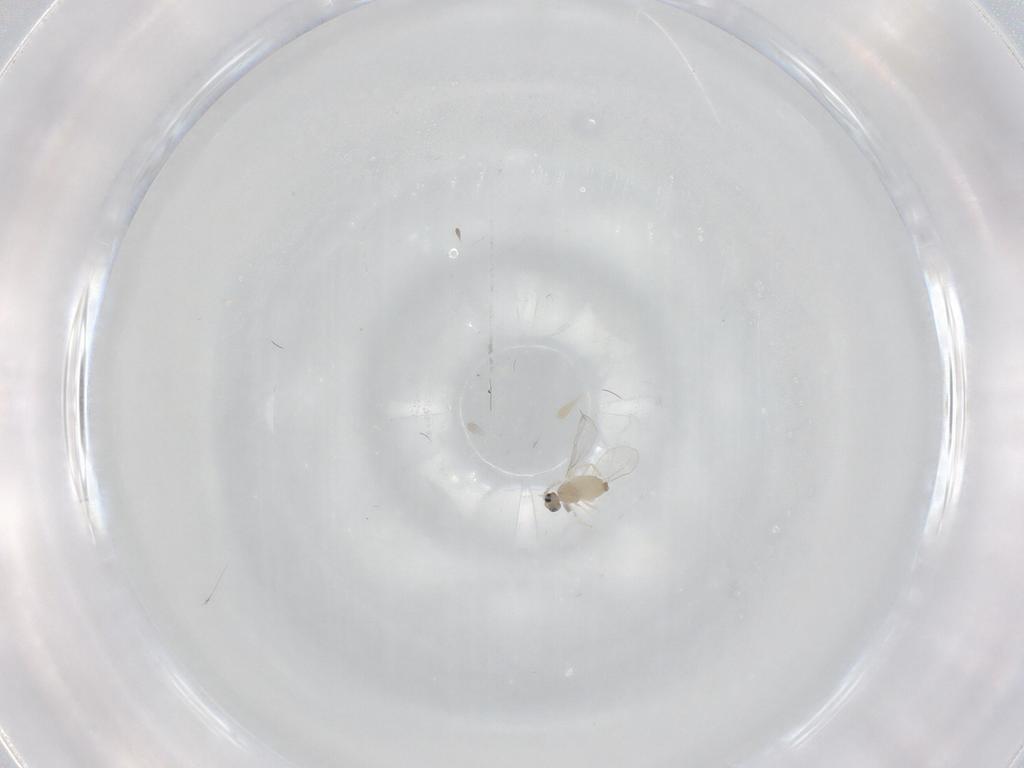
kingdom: Animalia
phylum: Arthropoda
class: Insecta
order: Diptera
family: Cecidomyiidae
